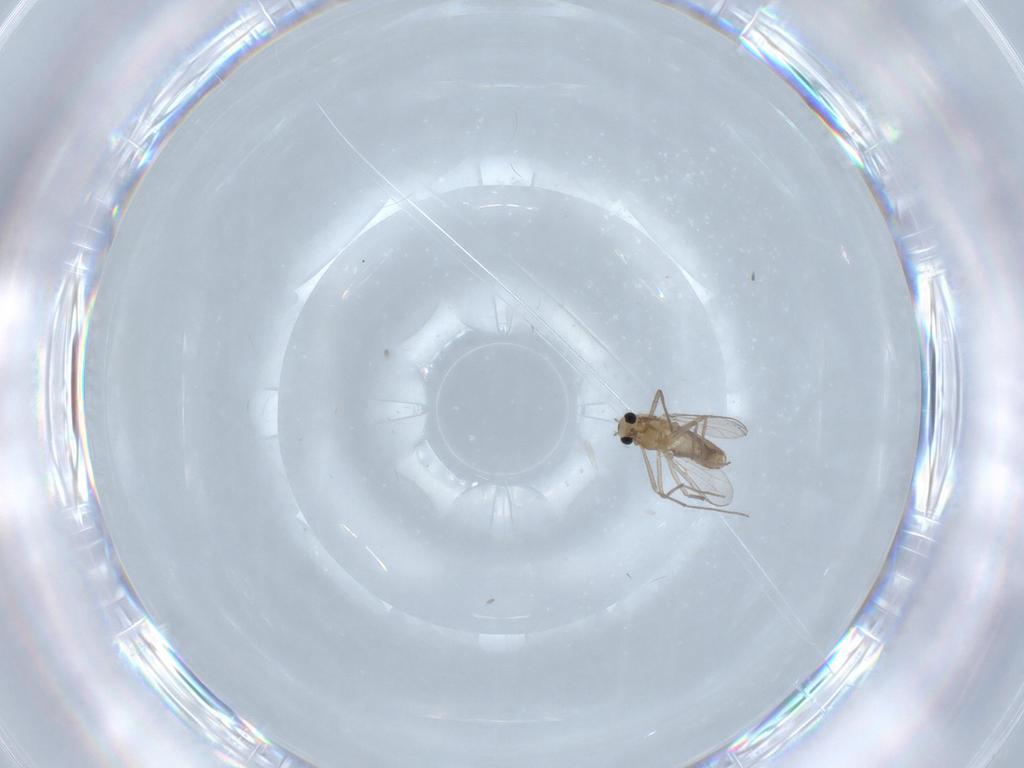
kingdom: Animalia
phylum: Arthropoda
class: Insecta
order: Diptera
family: Chironomidae
